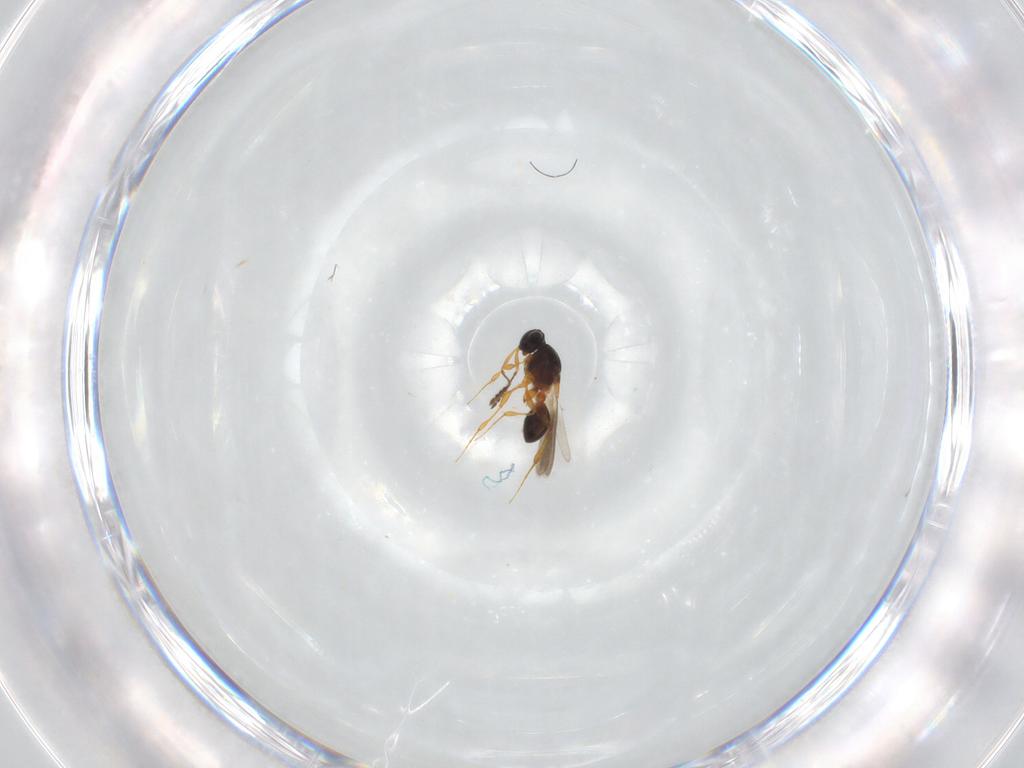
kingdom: Animalia
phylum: Arthropoda
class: Insecta
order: Hymenoptera
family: Platygastridae
